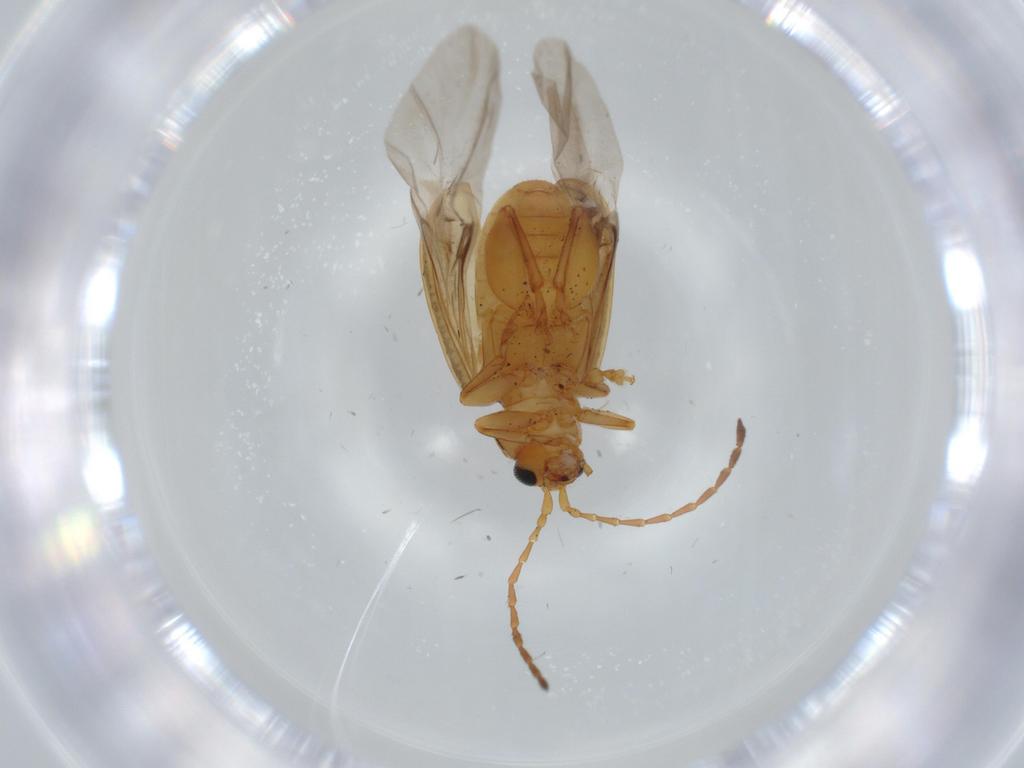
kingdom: Animalia
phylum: Arthropoda
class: Insecta
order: Coleoptera
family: Chrysomelidae
